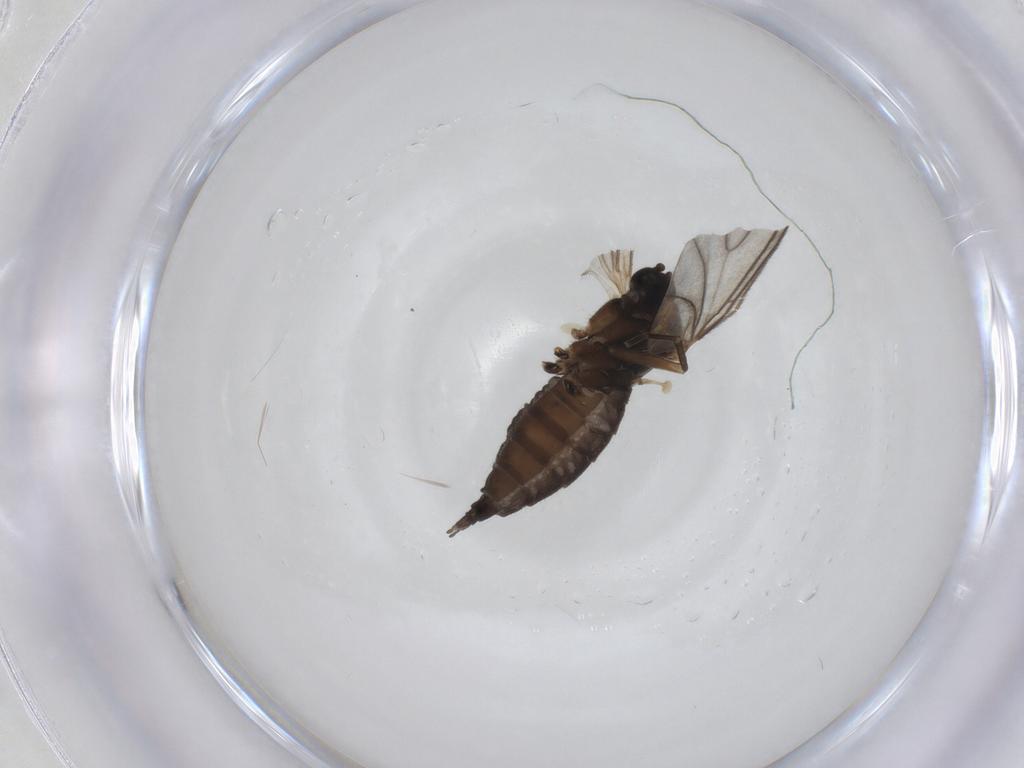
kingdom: Animalia
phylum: Arthropoda
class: Insecta
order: Diptera
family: Sciaridae
